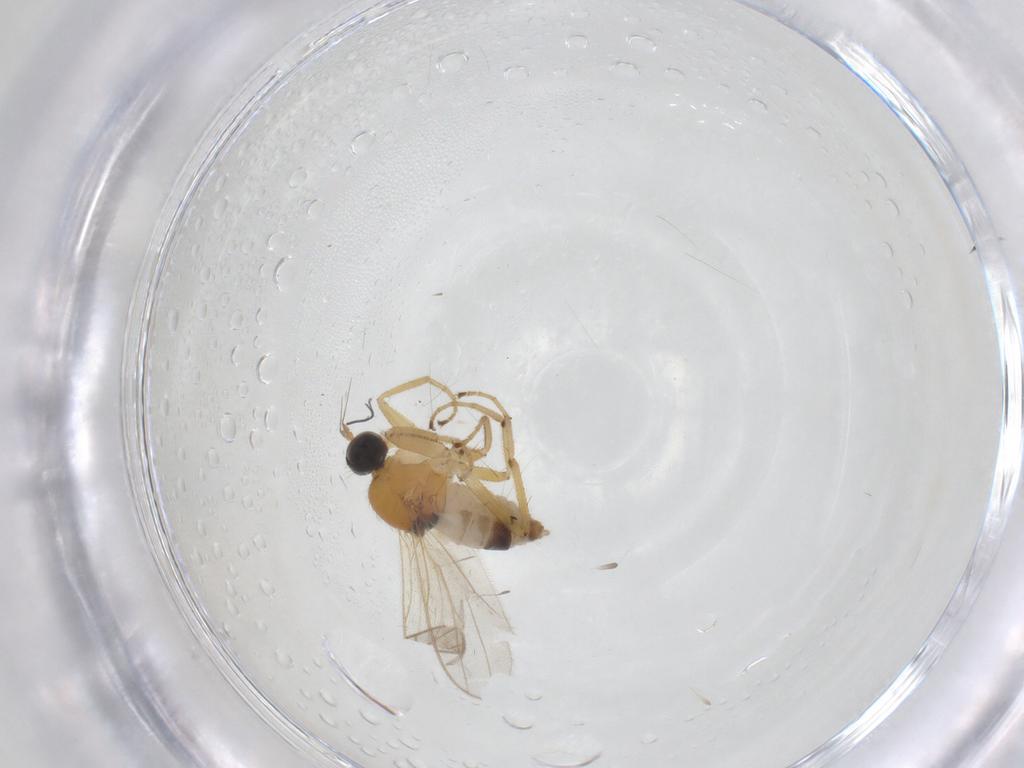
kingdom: Animalia
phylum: Arthropoda
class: Insecta
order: Diptera
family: Hybotidae
